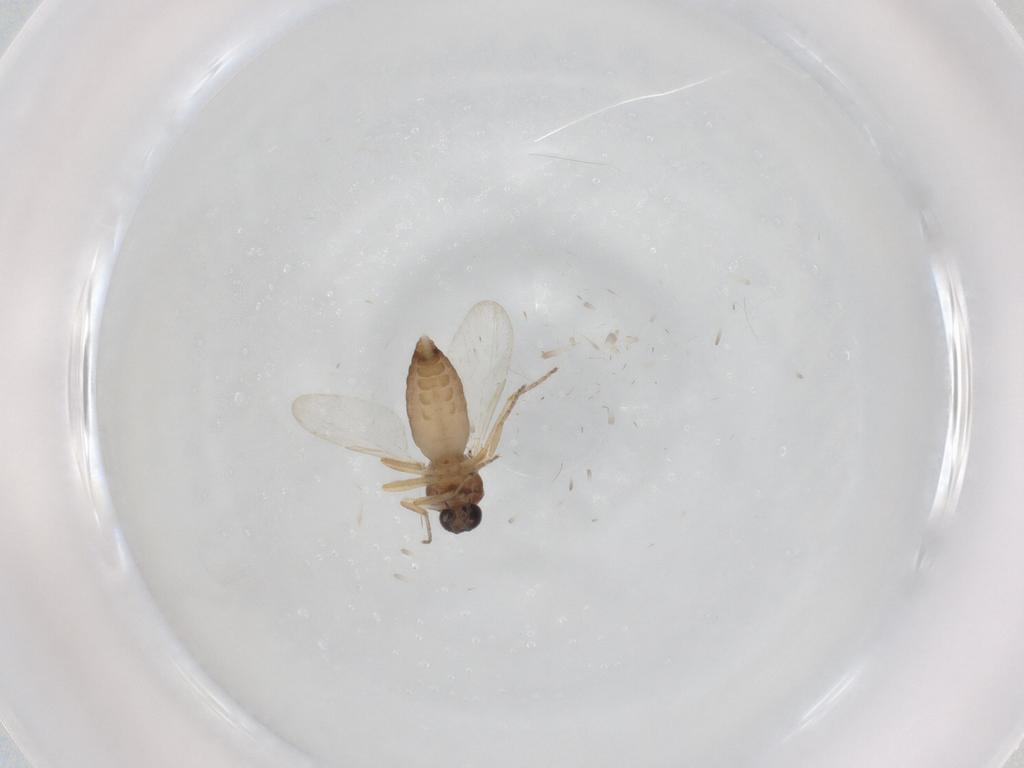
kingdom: Animalia
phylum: Arthropoda
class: Insecta
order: Diptera
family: Ceratopogonidae
